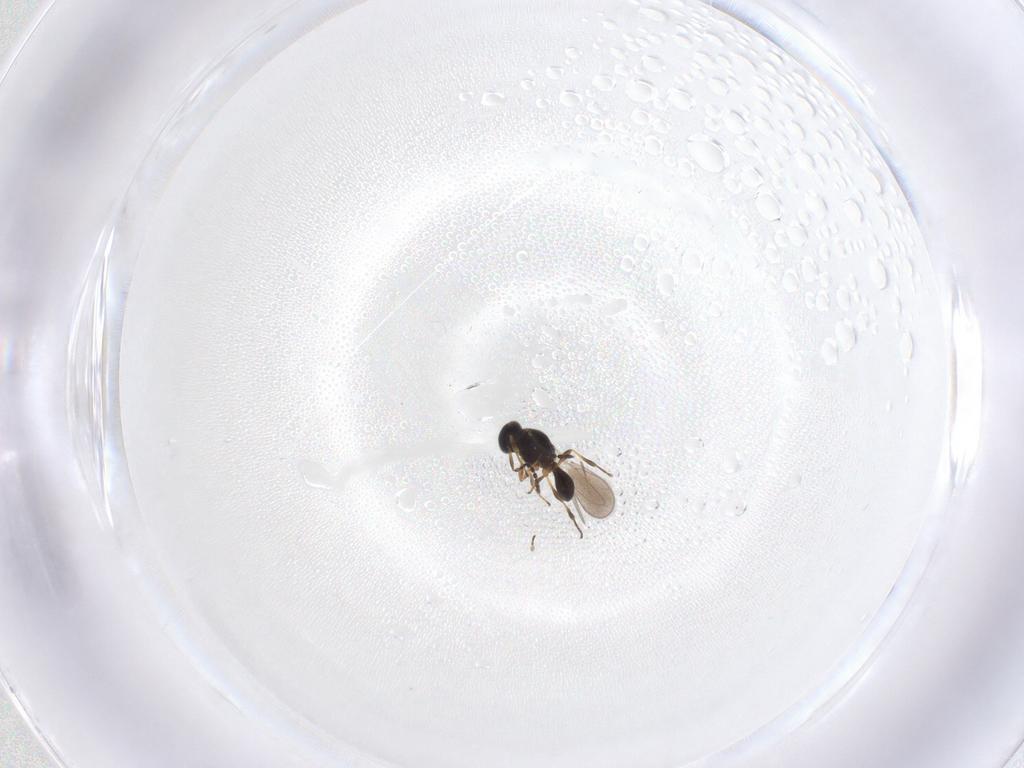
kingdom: Animalia
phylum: Arthropoda
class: Insecta
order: Hymenoptera
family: Platygastridae
